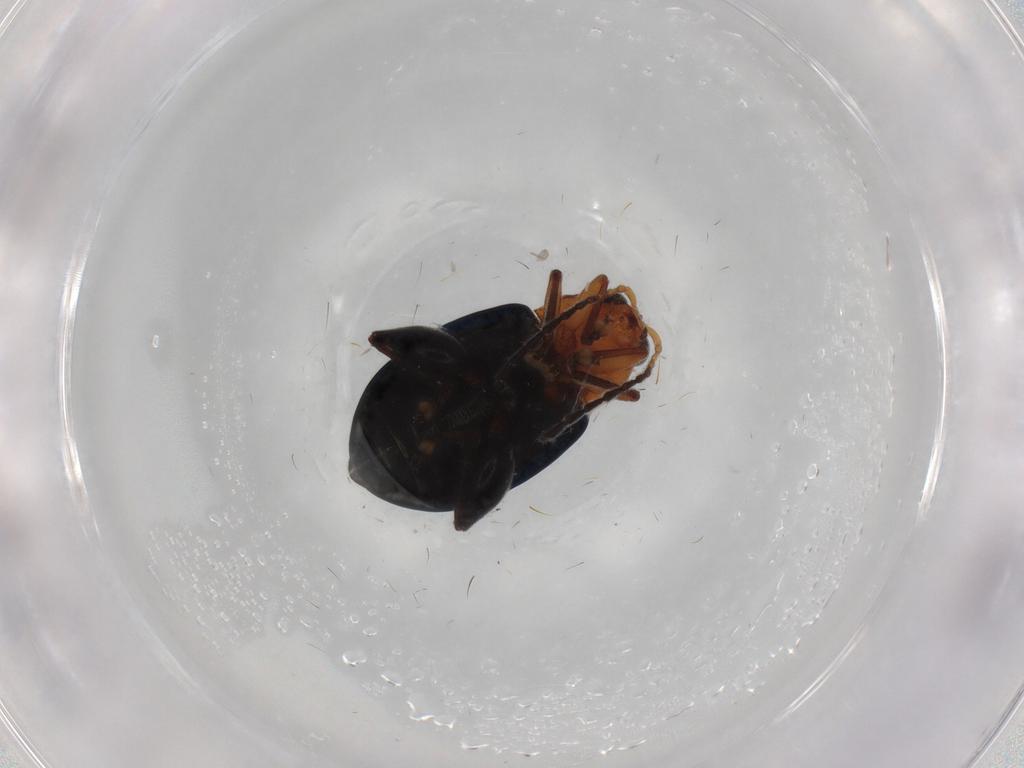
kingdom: Animalia
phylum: Arthropoda
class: Insecta
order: Coleoptera
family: Chrysomelidae
